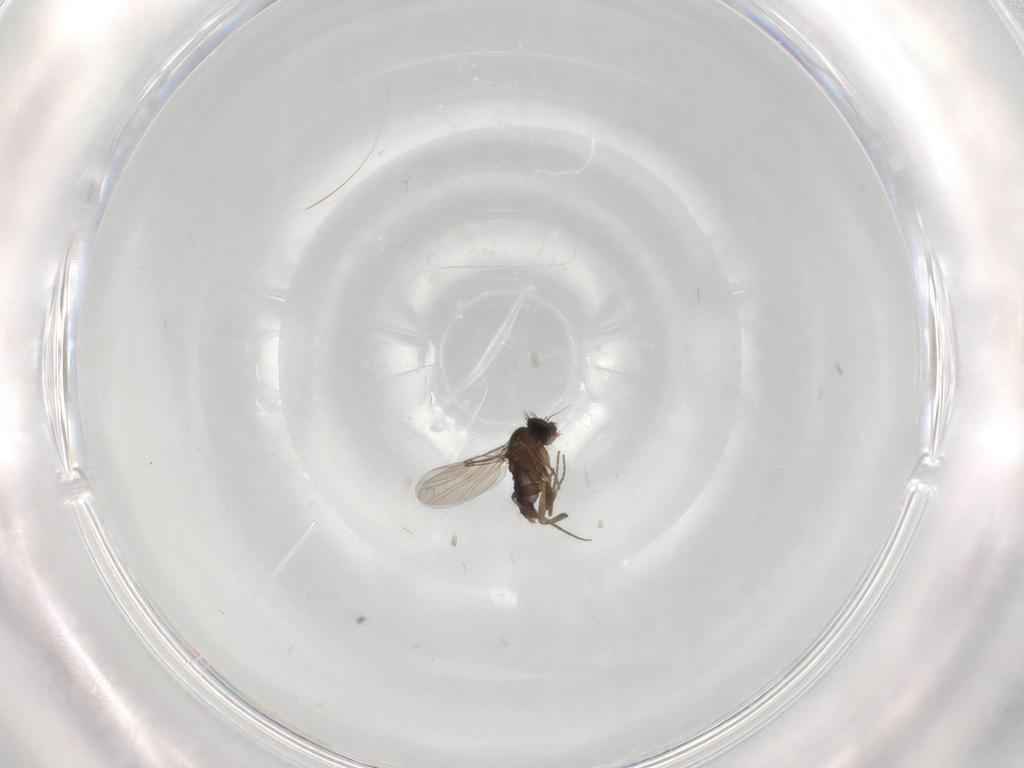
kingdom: Animalia
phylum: Arthropoda
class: Insecta
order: Diptera
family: Phoridae
